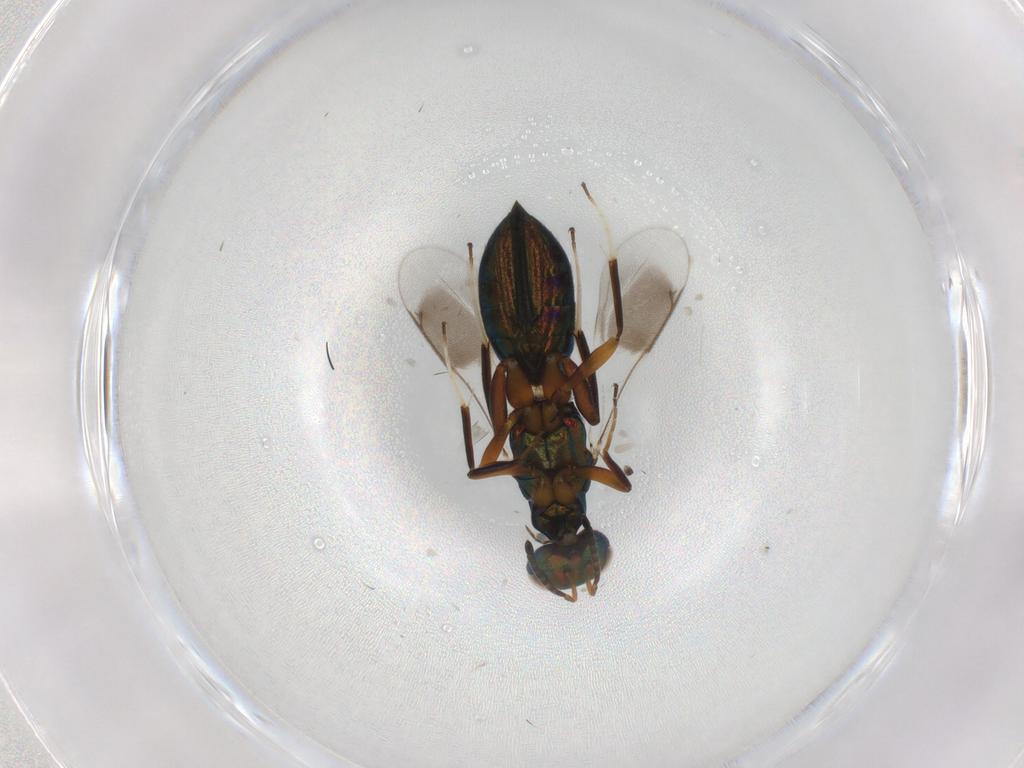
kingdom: Animalia
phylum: Arthropoda
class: Insecta
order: Hymenoptera
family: Cleonyminae
